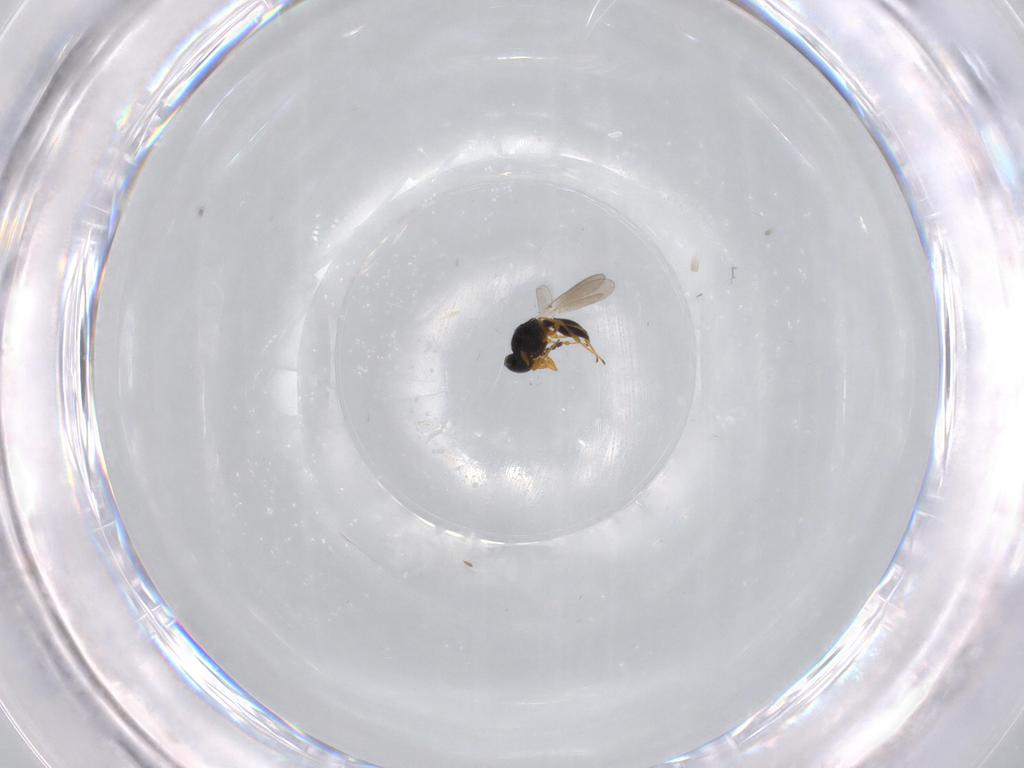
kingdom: Animalia
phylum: Arthropoda
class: Insecta
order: Hymenoptera
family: Platygastridae
